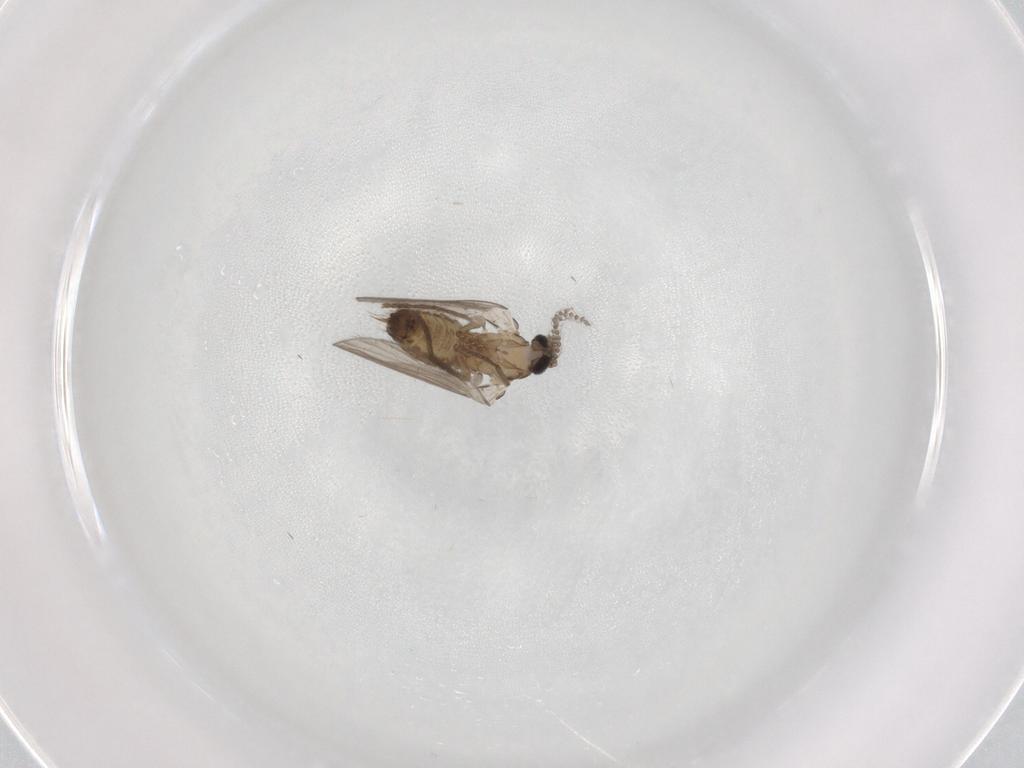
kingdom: Animalia
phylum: Arthropoda
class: Insecta
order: Diptera
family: Psychodidae
